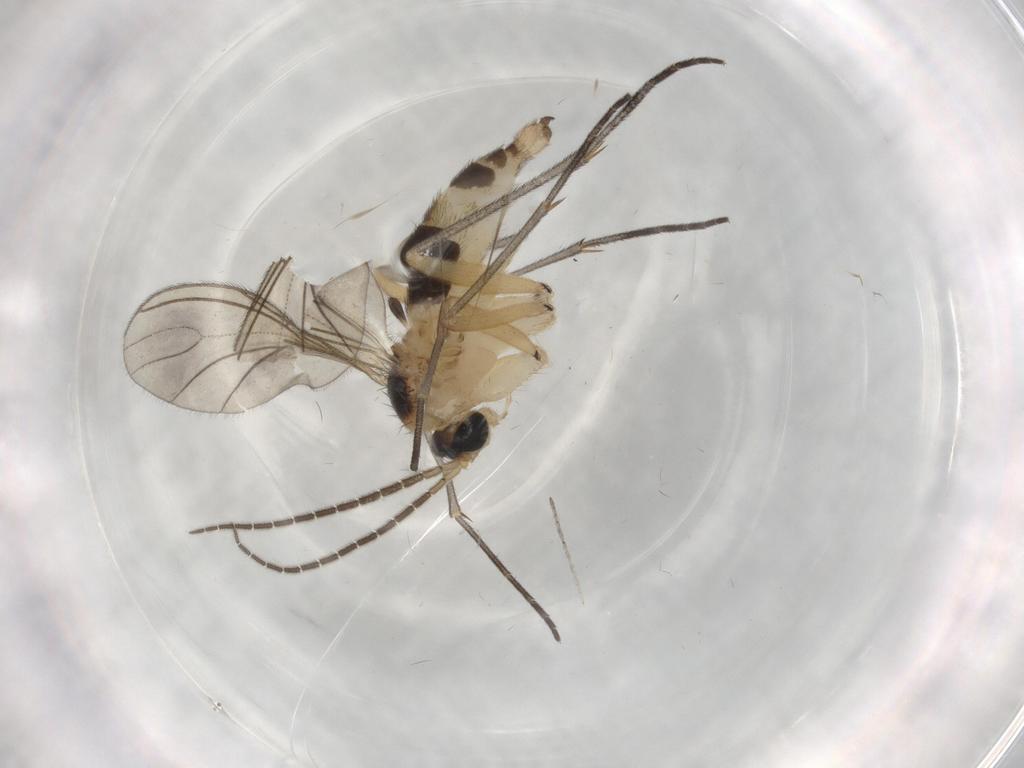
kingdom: Animalia
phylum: Arthropoda
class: Insecta
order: Diptera
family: Sciaridae
